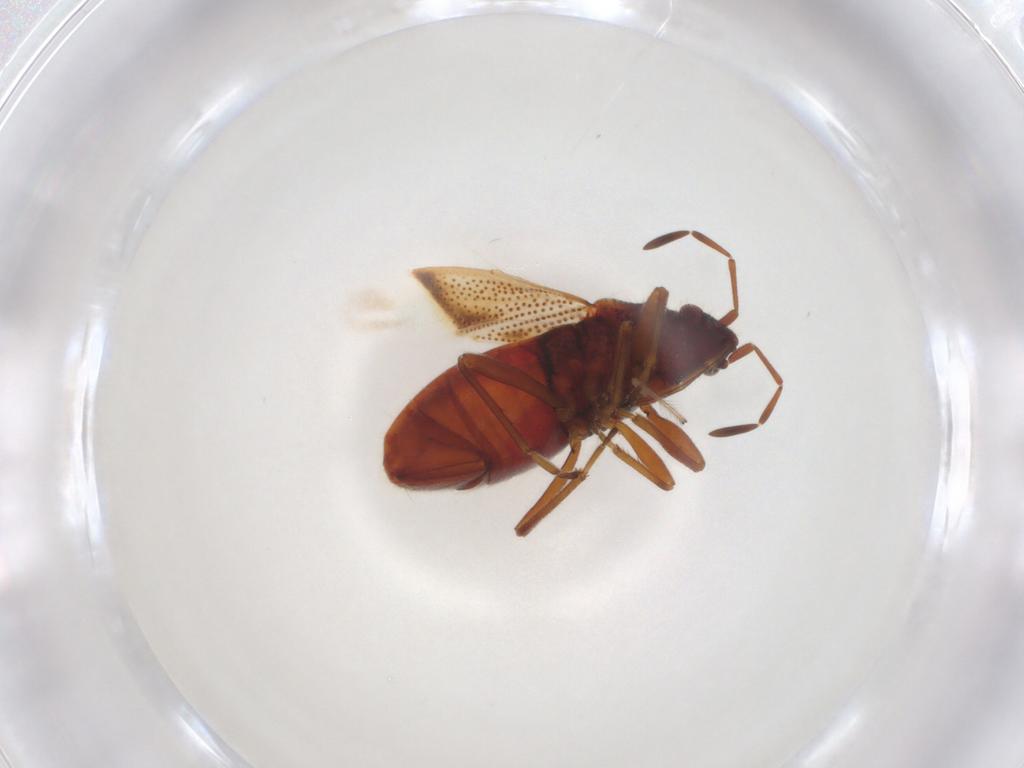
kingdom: Animalia
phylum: Arthropoda
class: Insecta
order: Hemiptera
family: Rhyparochromidae
